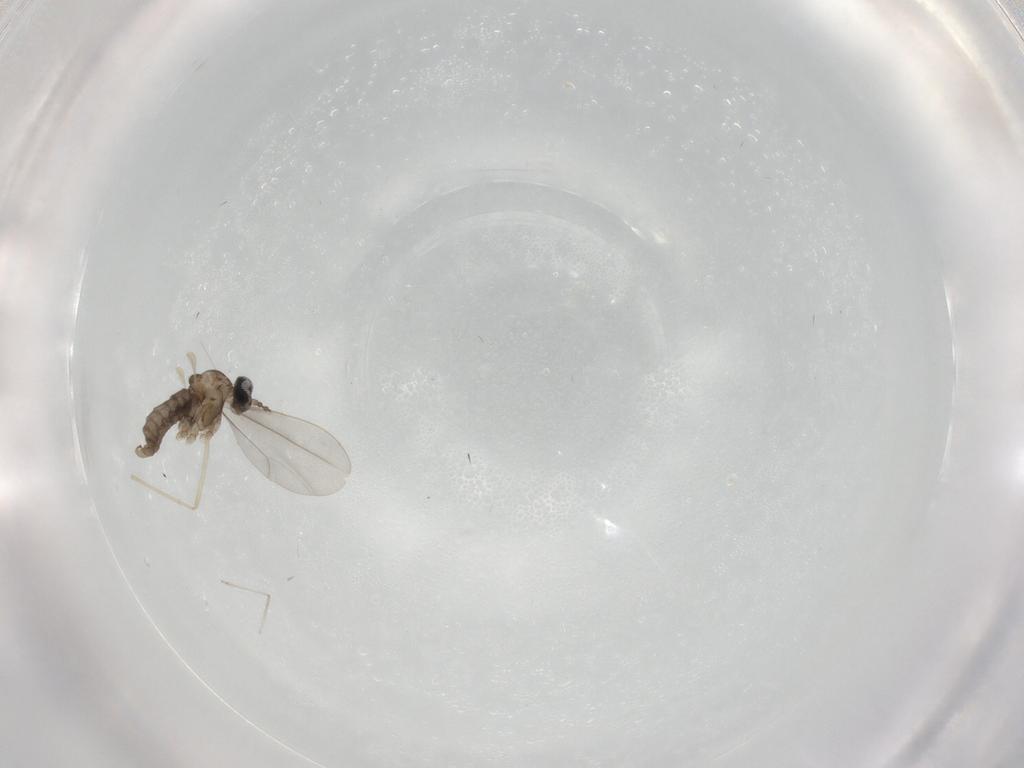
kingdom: Animalia
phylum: Arthropoda
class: Insecta
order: Diptera
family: Cecidomyiidae
